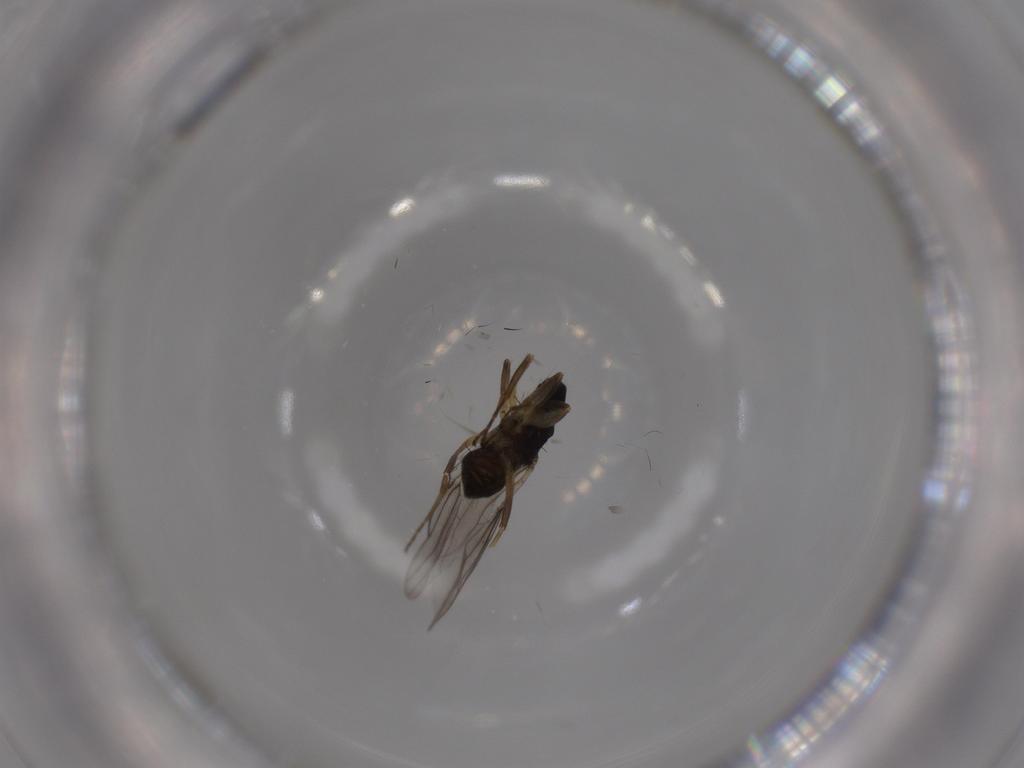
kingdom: Animalia
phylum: Arthropoda
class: Insecta
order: Diptera
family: Hybotidae
